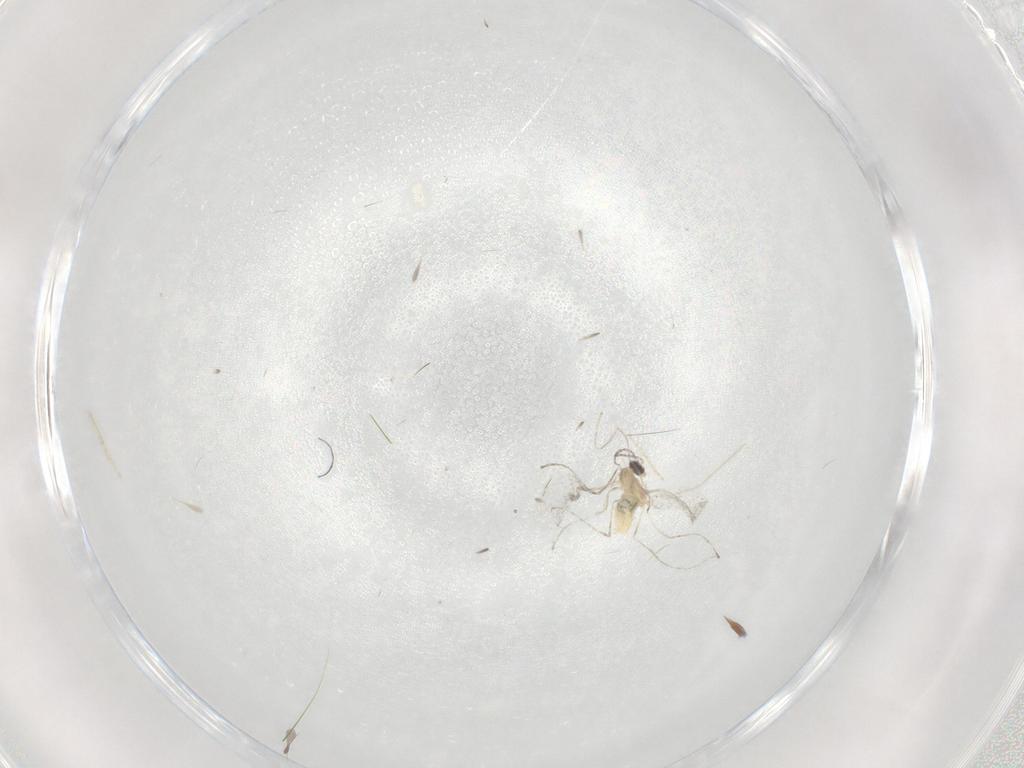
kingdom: Animalia
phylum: Arthropoda
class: Insecta
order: Diptera
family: Cecidomyiidae
